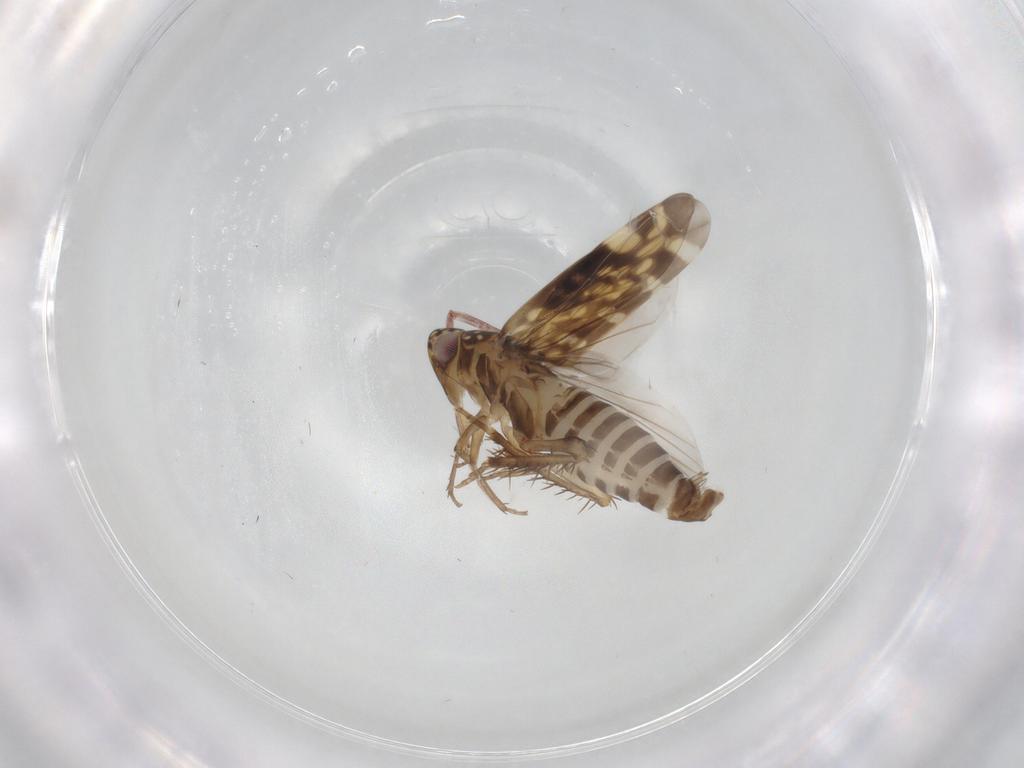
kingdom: Animalia
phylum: Arthropoda
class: Insecta
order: Hemiptera
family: Cicadellidae
